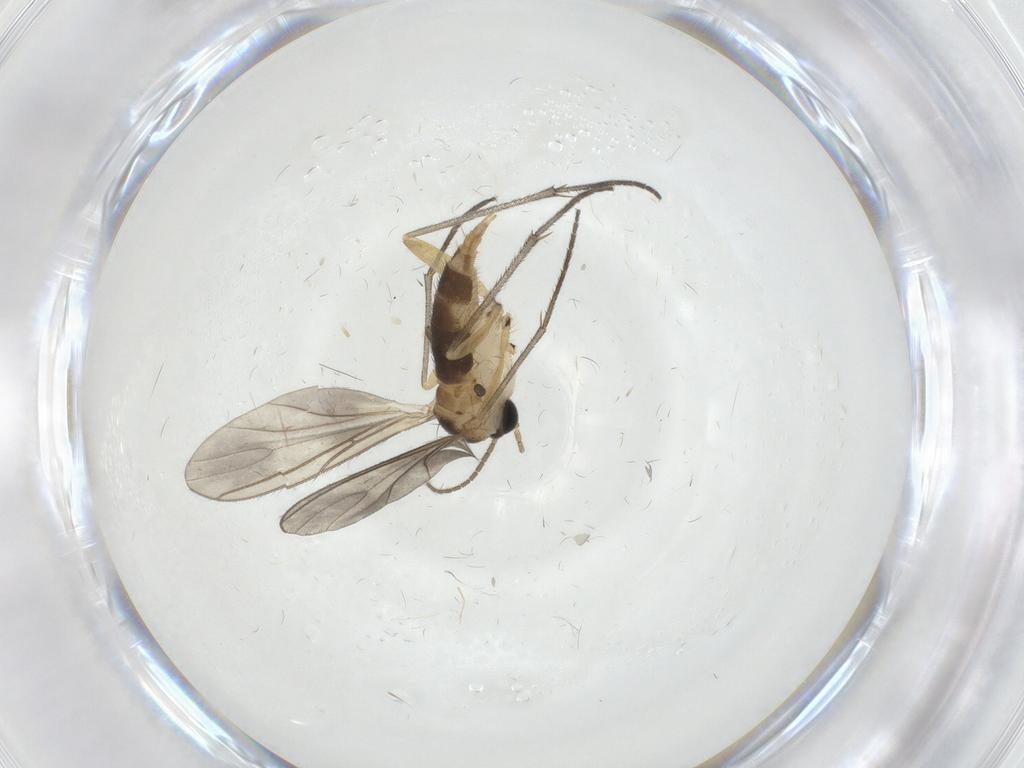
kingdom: Animalia
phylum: Arthropoda
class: Insecta
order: Diptera
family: Sciaridae
